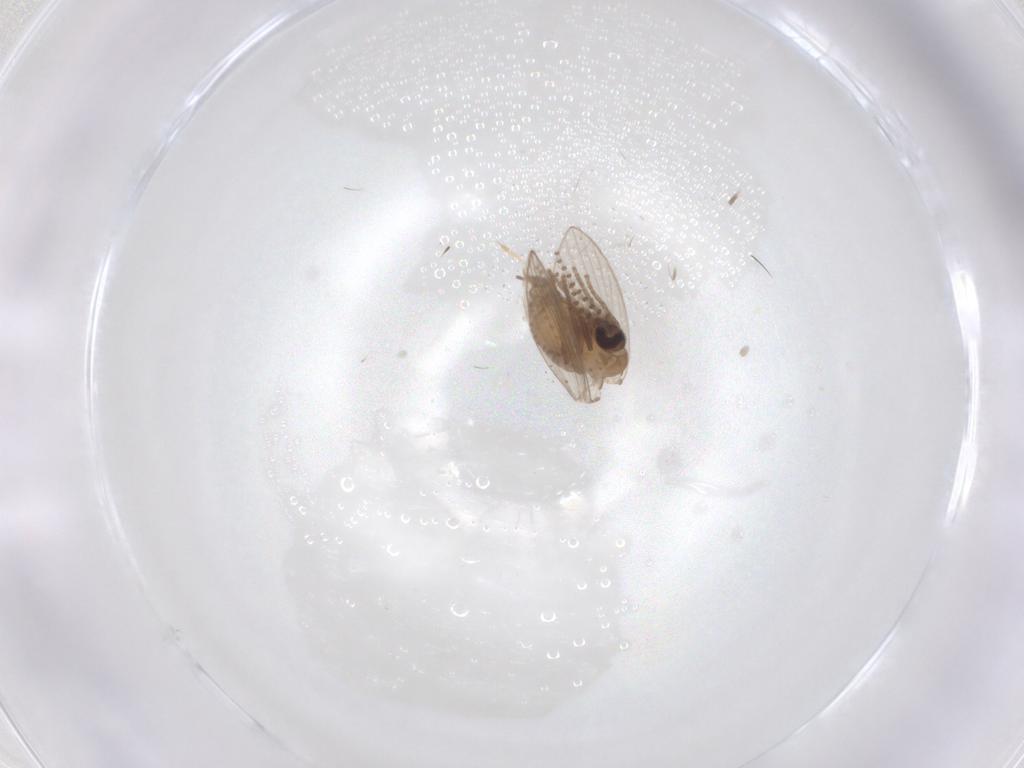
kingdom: Animalia
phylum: Arthropoda
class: Insecta
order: Diptera
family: Psychodidae
